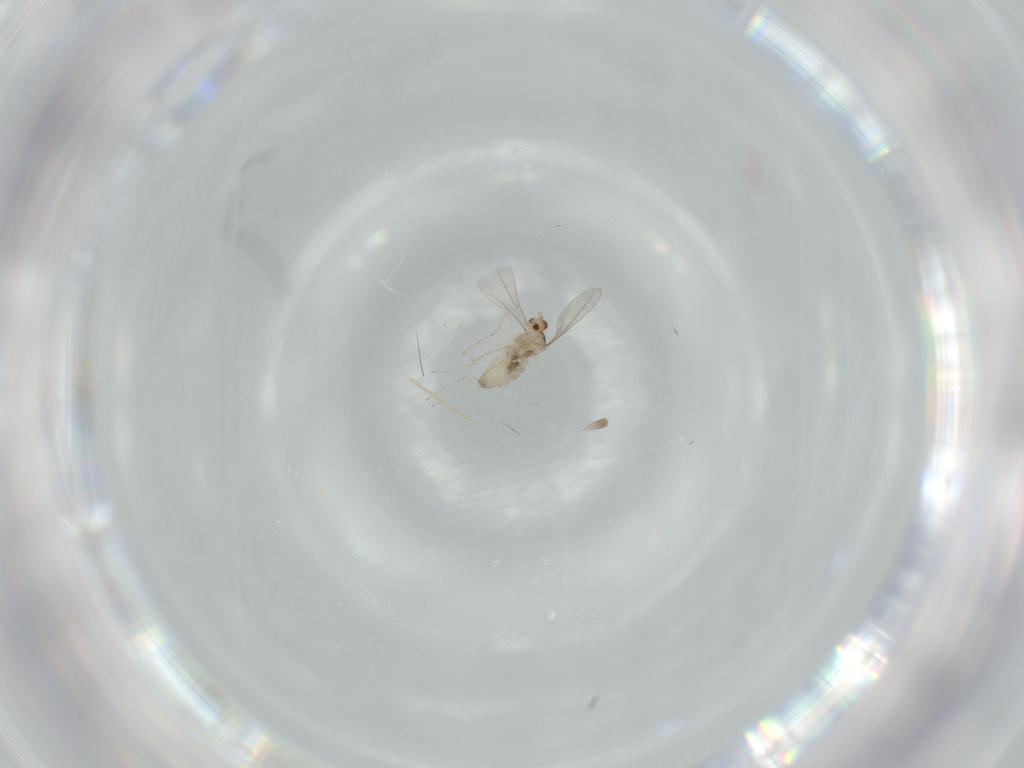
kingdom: Animalia
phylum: Arthropoda
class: Insecta
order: Diptera
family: Cecidomyiidae
